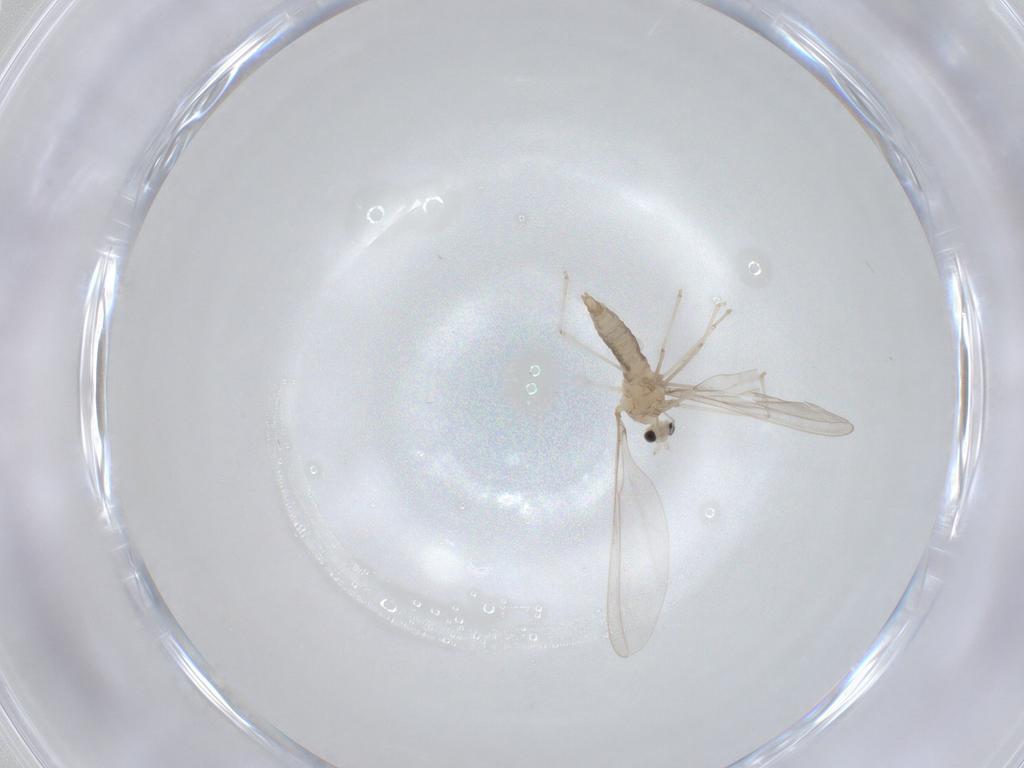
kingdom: Animalia
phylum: Arthropoda
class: Insecta
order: Diptera
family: Cecidomyiidae
